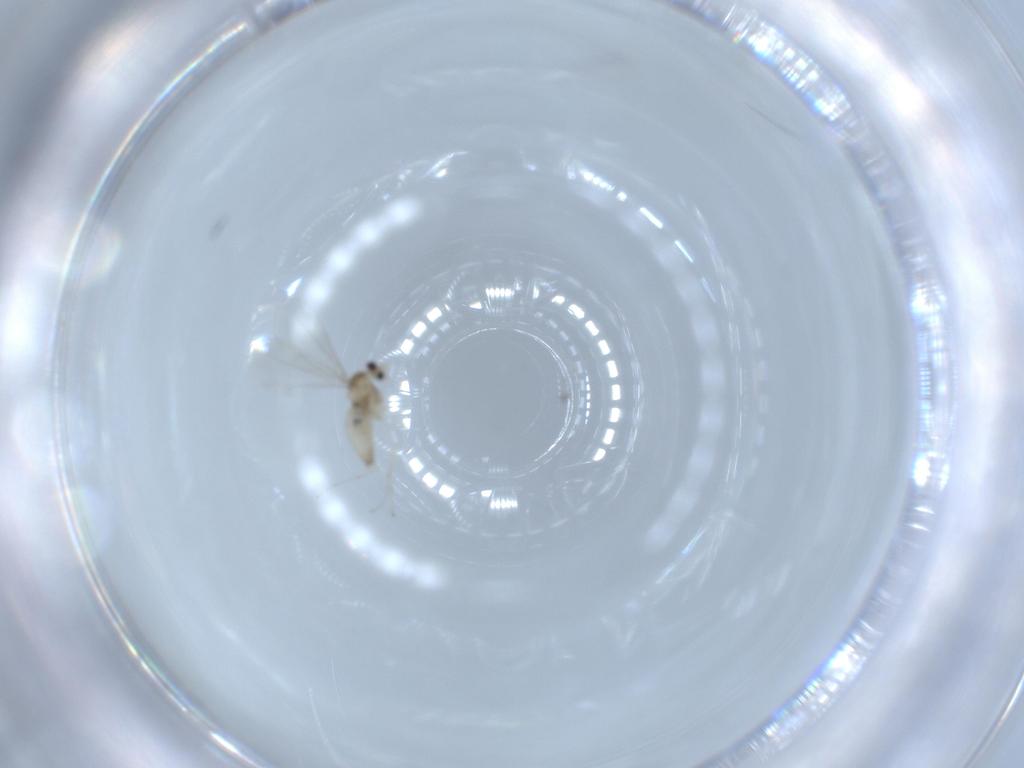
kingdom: Animalia
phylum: Arthropoda
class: Insecta
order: Diptera
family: Cecidomyiidae
